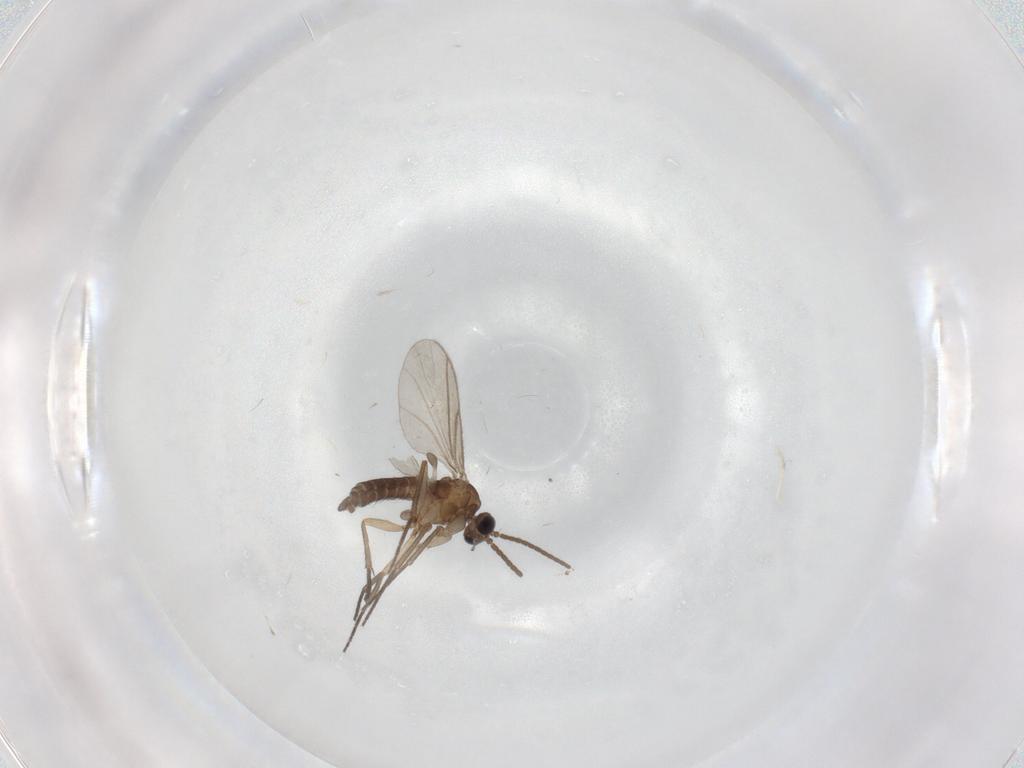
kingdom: Animalia
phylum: Arthropoda
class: Insecta
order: Diptera
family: Sciaridae
